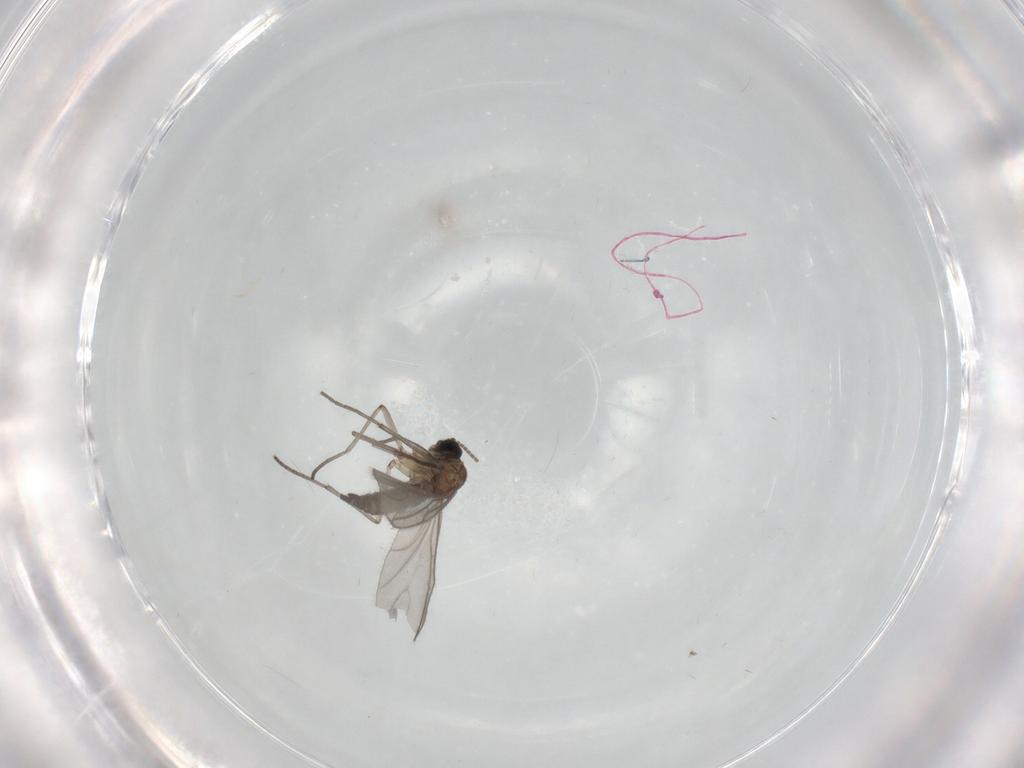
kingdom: Animalia
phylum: Arthropoda
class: Insecta
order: Diptera
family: Sciaridae
